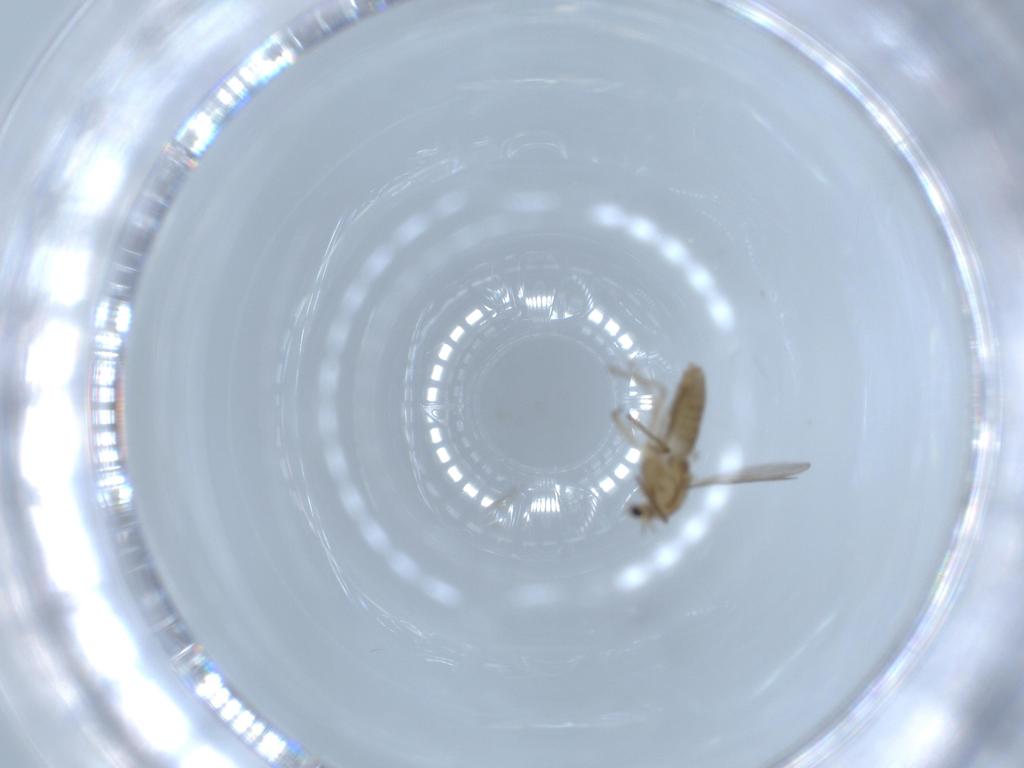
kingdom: Animalia
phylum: Arthropoda
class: Insecta
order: Diptera
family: Chironomidae
